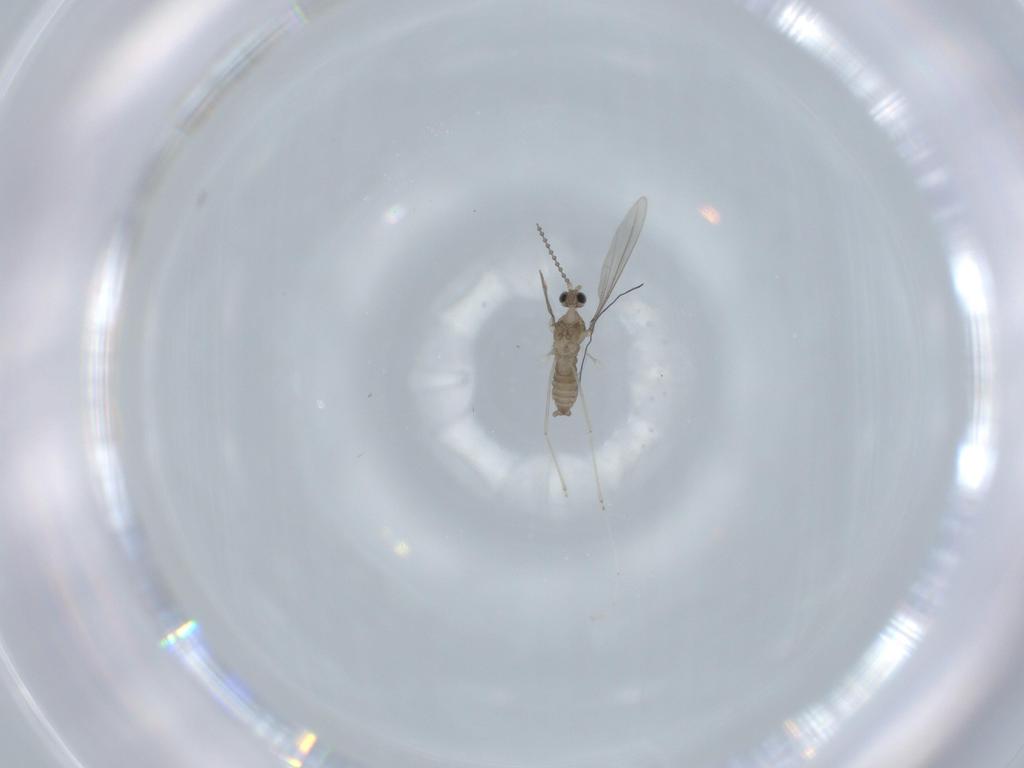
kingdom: Animalia
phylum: Arthropoda
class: Insecta
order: Diptera
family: Cecidomyiidae
